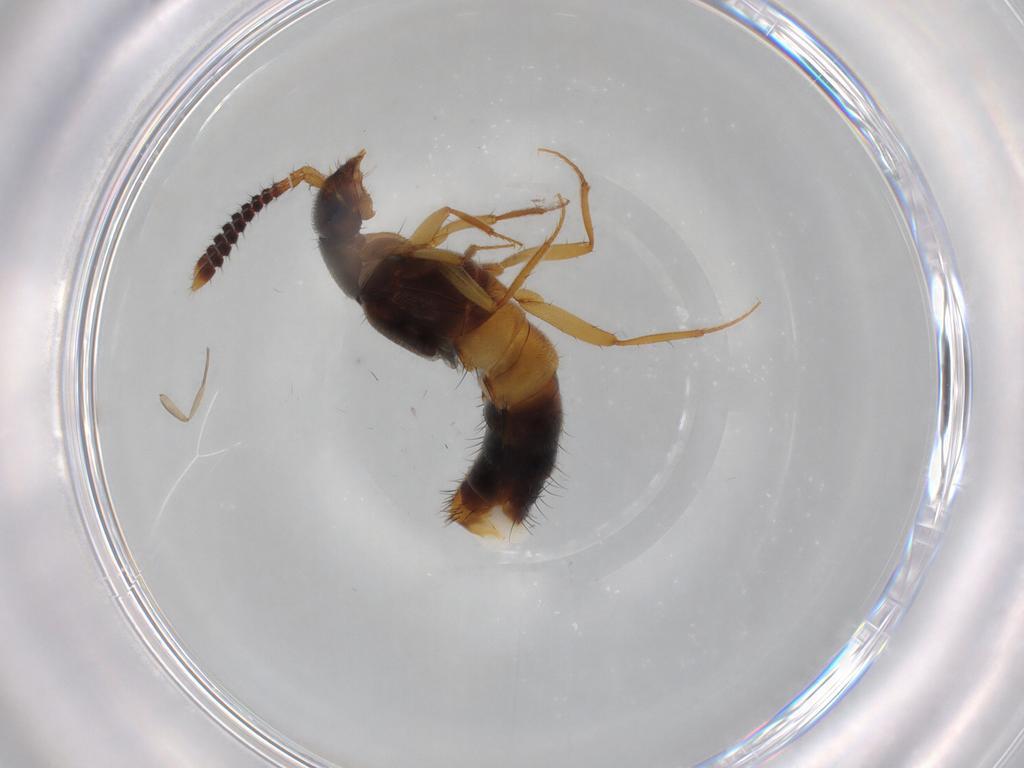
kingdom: Animalia
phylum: Arthropoda
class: Insecta
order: Coleoptera
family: Staphylinidae
